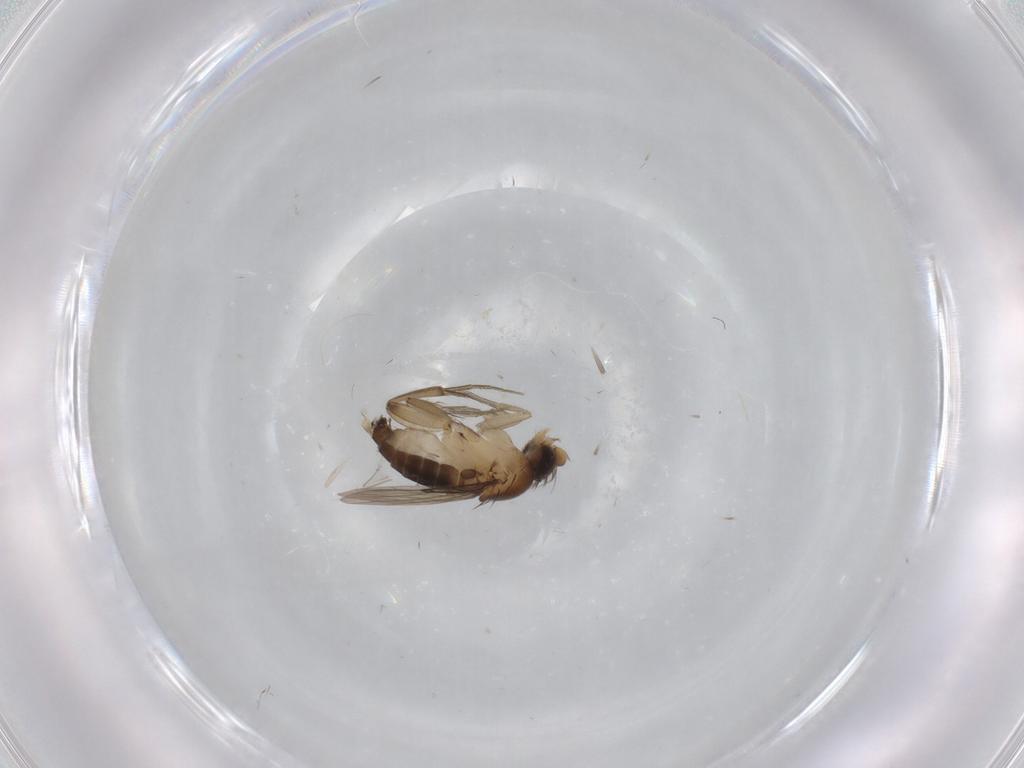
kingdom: Animalia
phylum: Arthropoda
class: Insecta
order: Diptera
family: Phoridae
